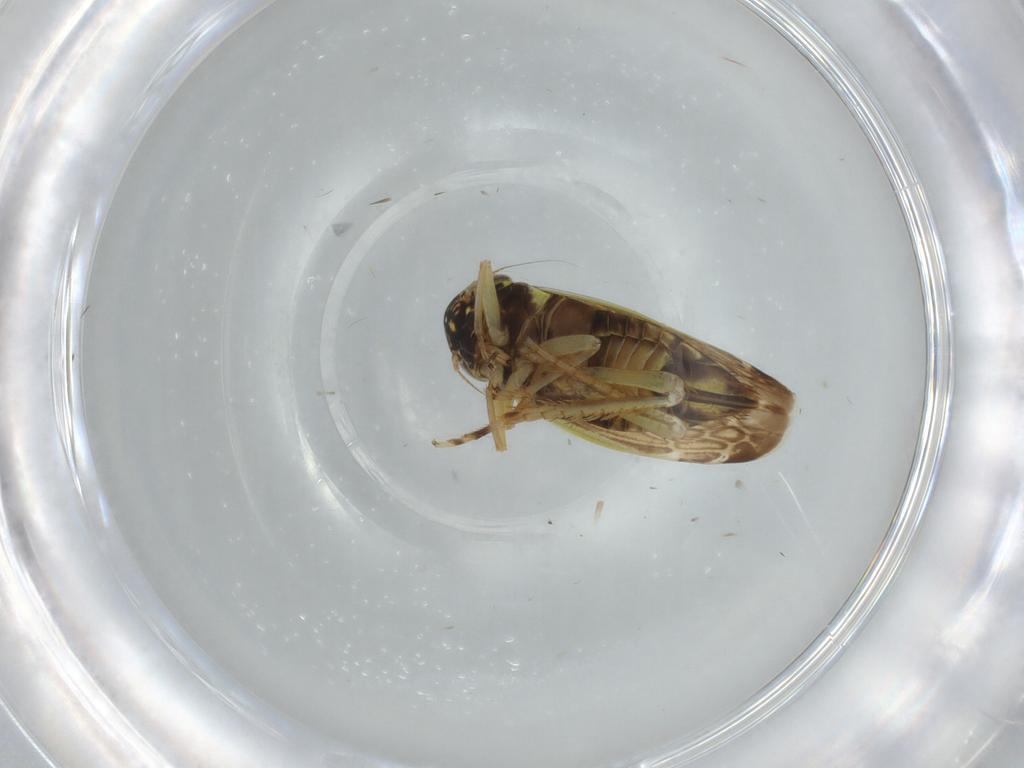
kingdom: Animalia
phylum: Arthropoda
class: Insecta
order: Hemiptera
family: Cicadellidae
